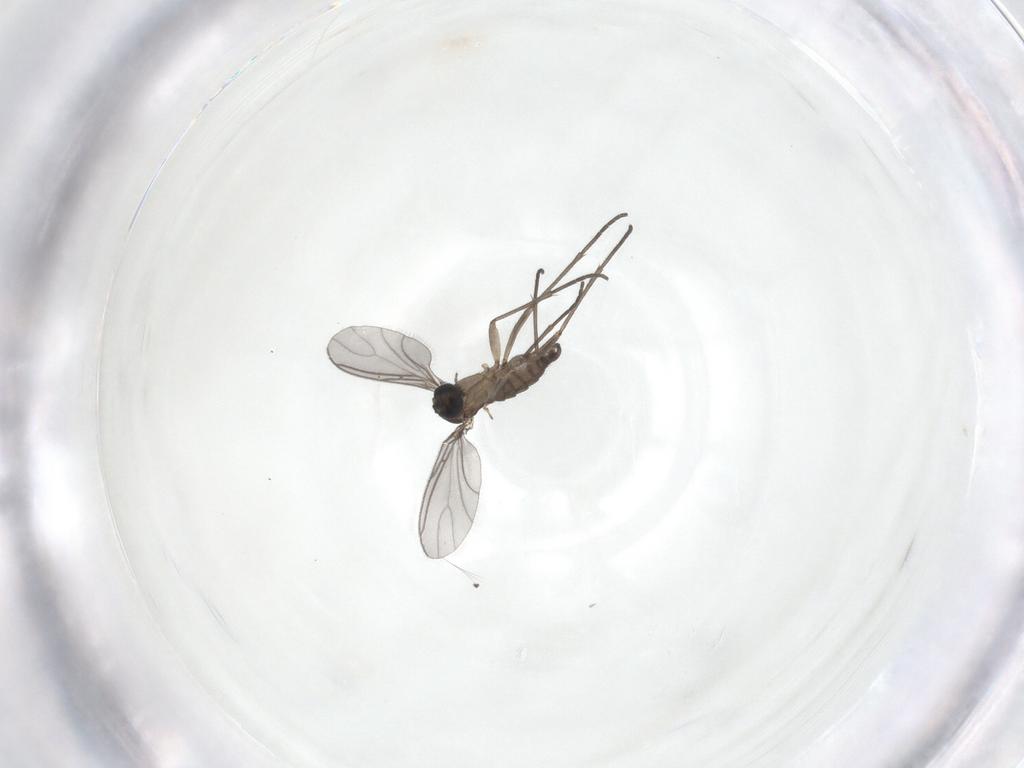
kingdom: Animalia
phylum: Arthropoda
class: Insecta
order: Diptera
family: Sciaridae
